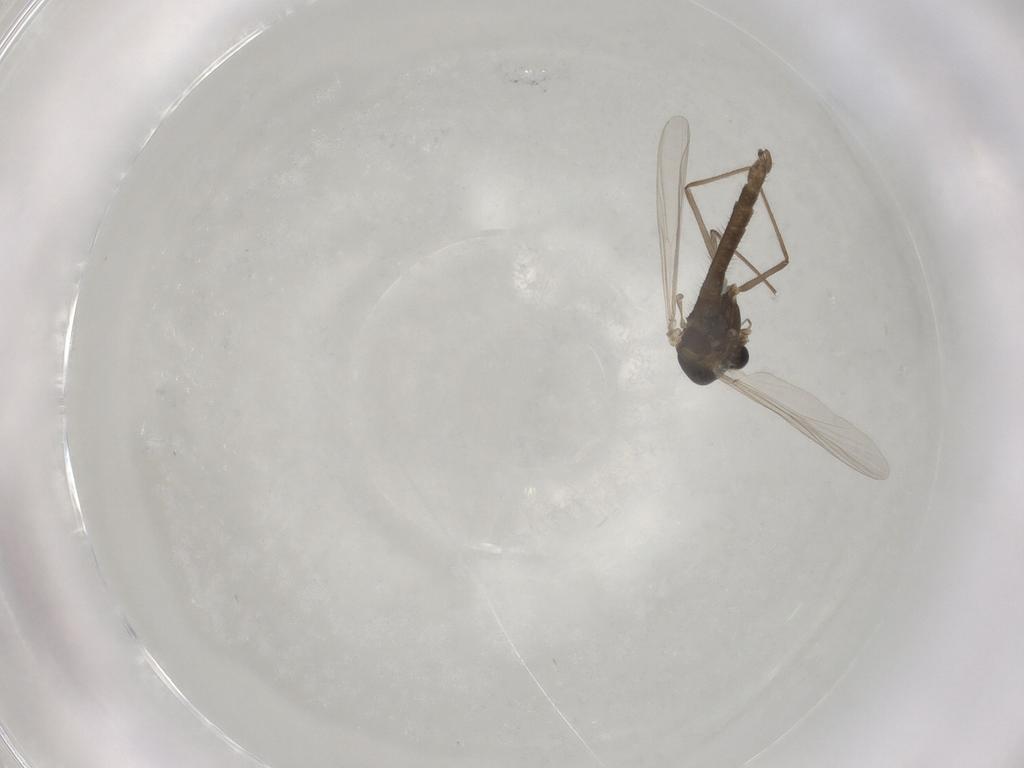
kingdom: Animalia
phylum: Arthropoda
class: Insecta
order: Diptera
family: Chironomidae
